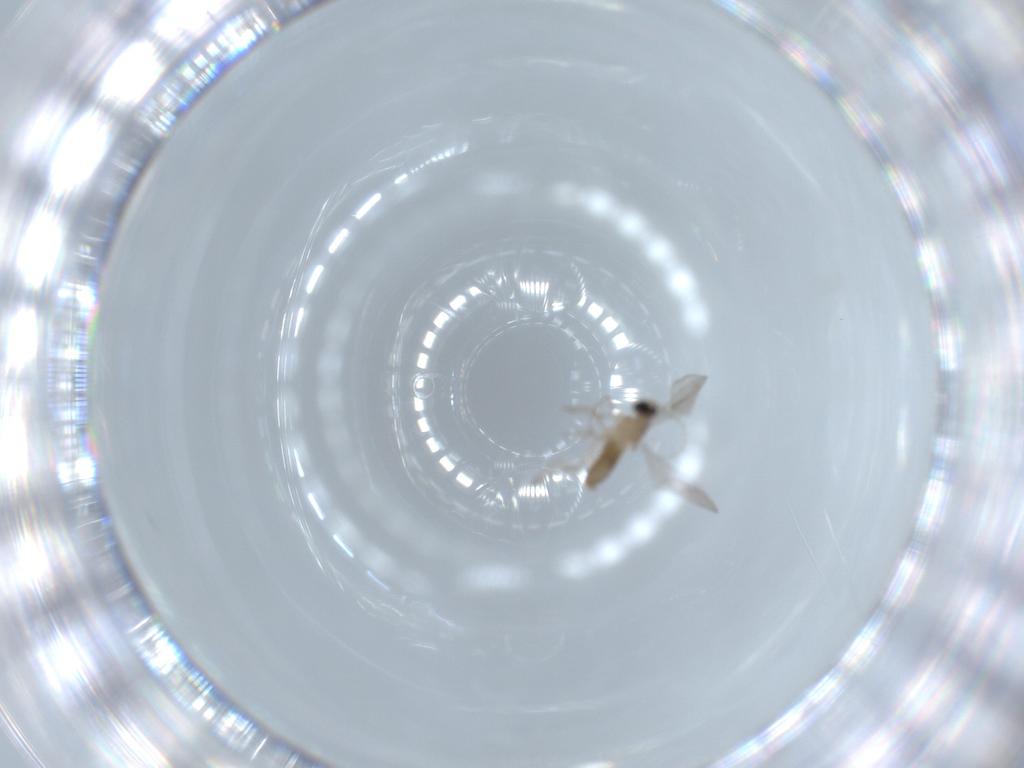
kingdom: Animalia
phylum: Arthropoda
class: Insecta
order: Diptera
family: Cecidomyiidae
